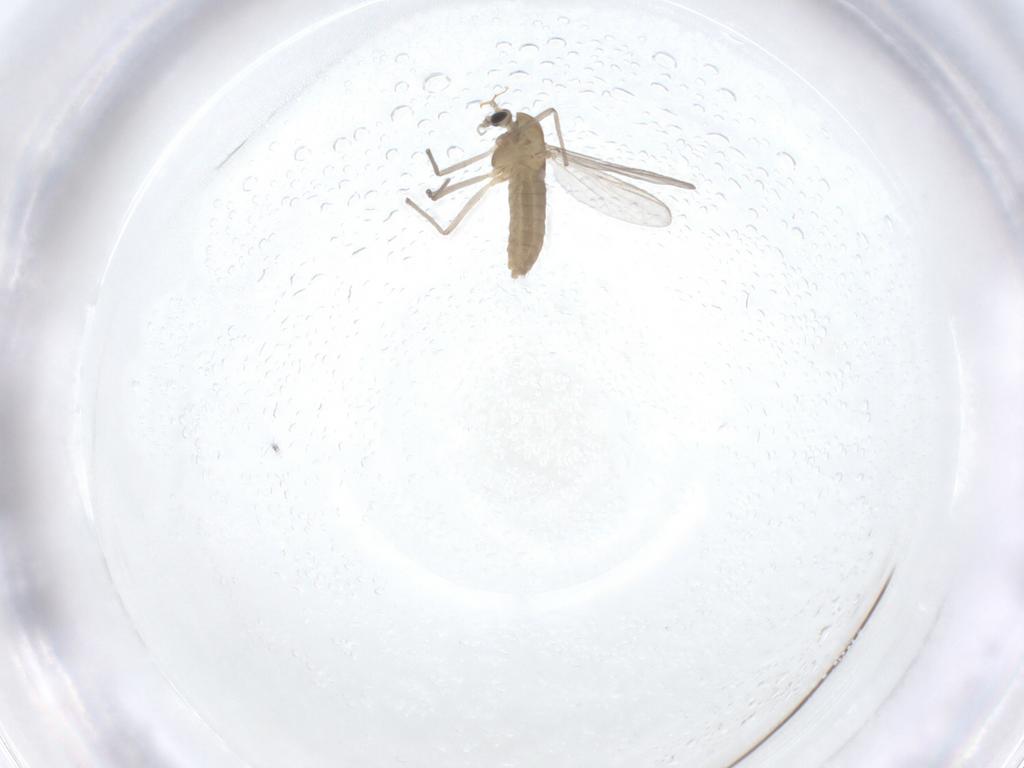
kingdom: Animalia
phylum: Arthropoda
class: Insecta
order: Diptera
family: Chironomidae
